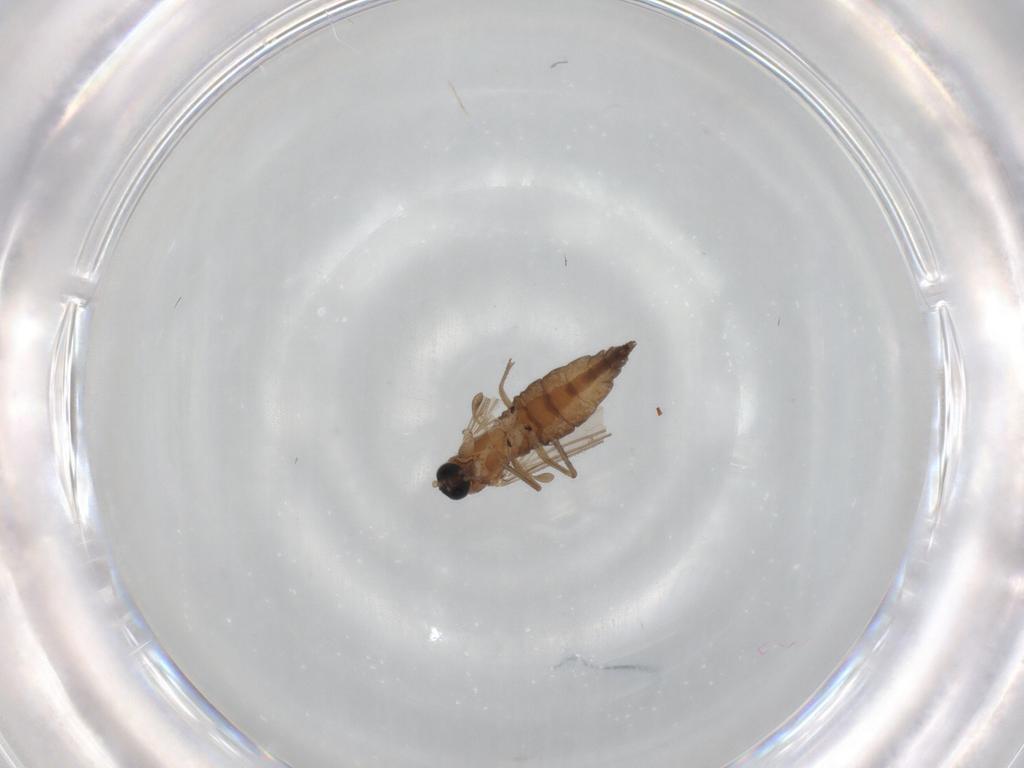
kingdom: Animalia
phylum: Arthropoda
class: Insecta
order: Diptera
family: Sciaridae
